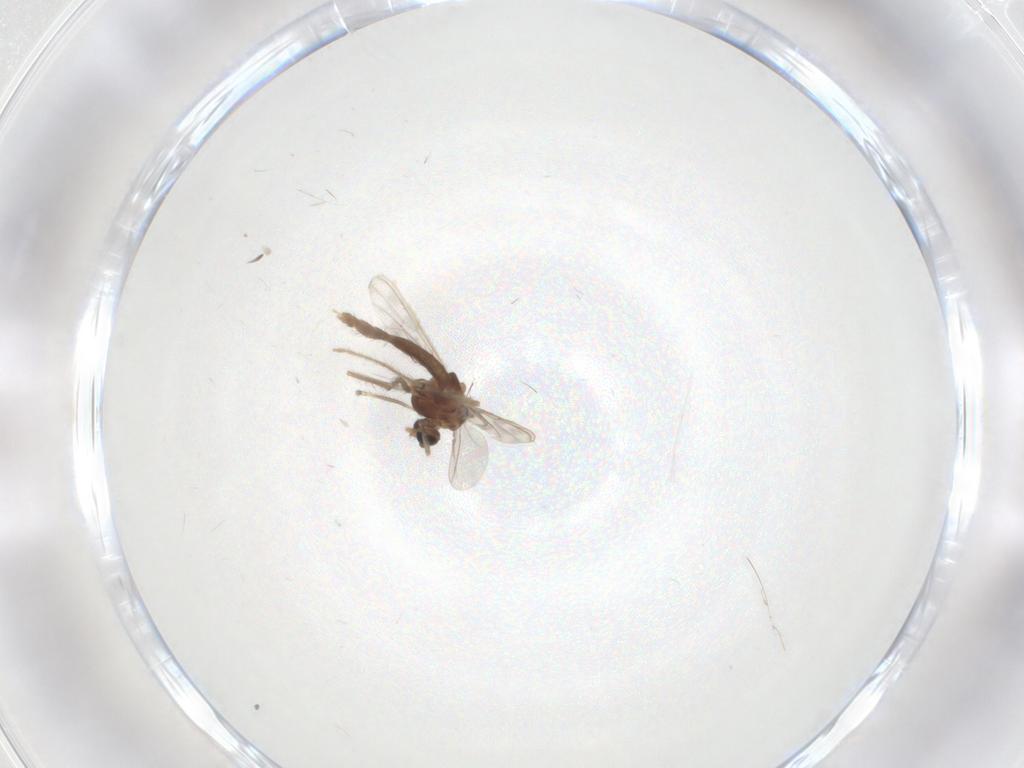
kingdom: Animalia
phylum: Arthropoda
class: Insecta
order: Diptera
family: Chironomidae
